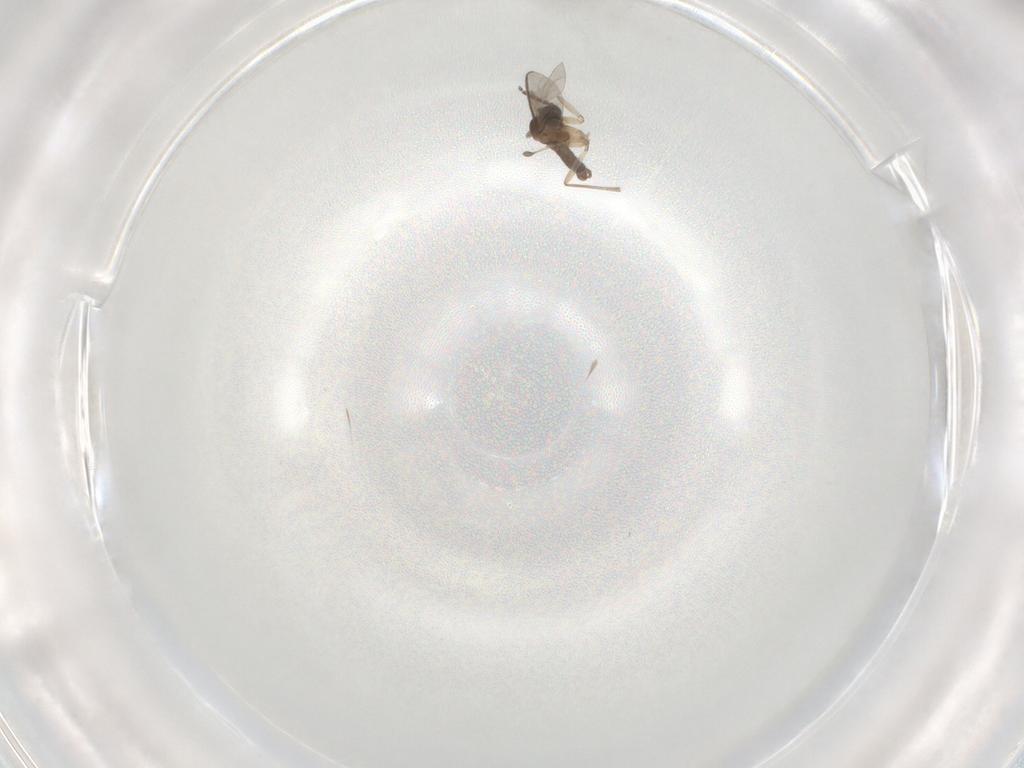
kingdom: Animalia
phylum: Arthropoda
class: Insecta
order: Diptera
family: Sciaridae
